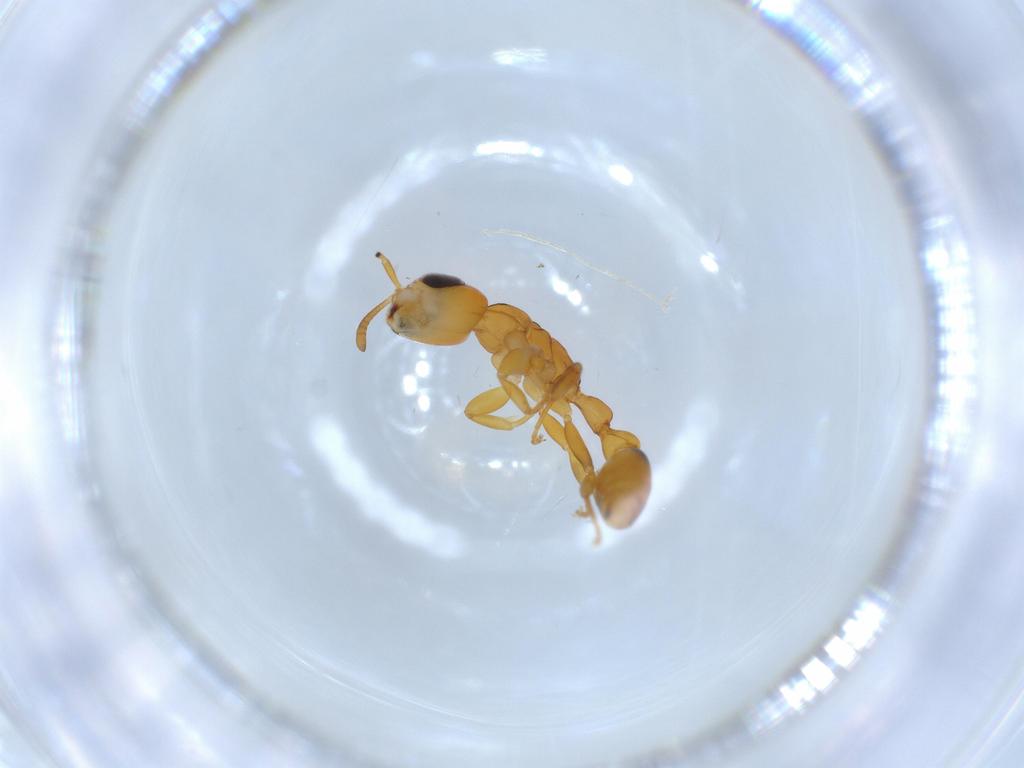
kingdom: Animalia
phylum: Arthropoda
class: Insecta
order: Hymenoptera
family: Formicidae
